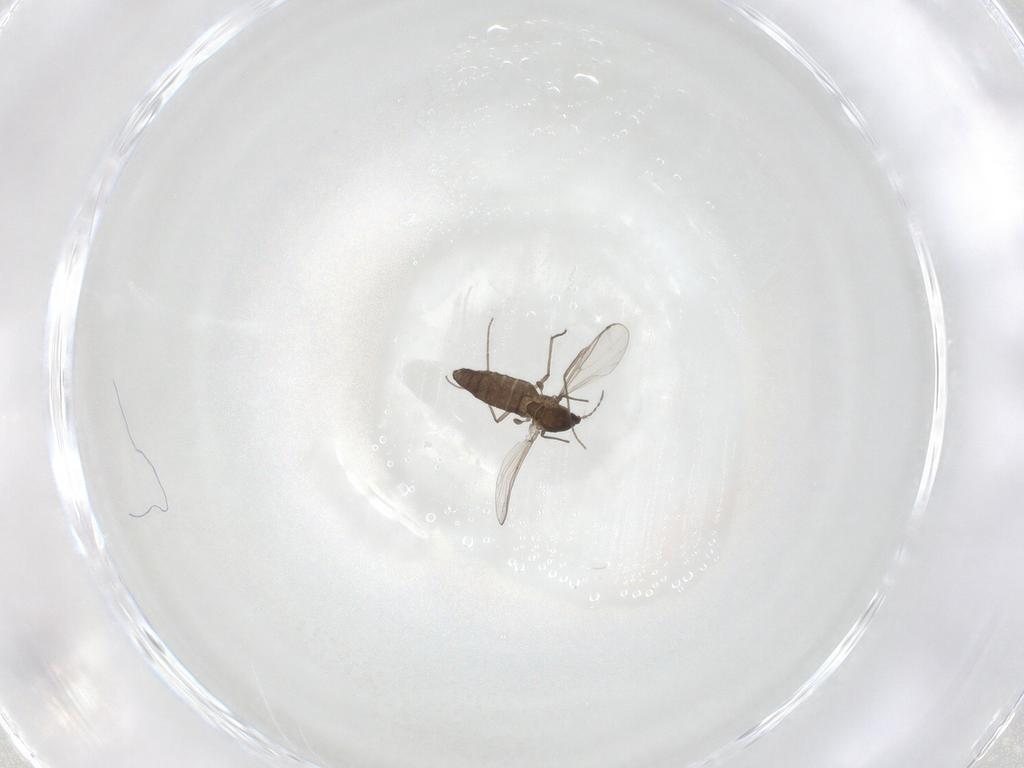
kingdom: Animalia
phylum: Arthropoda
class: Insecta
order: Diptera
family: Chironomidae
